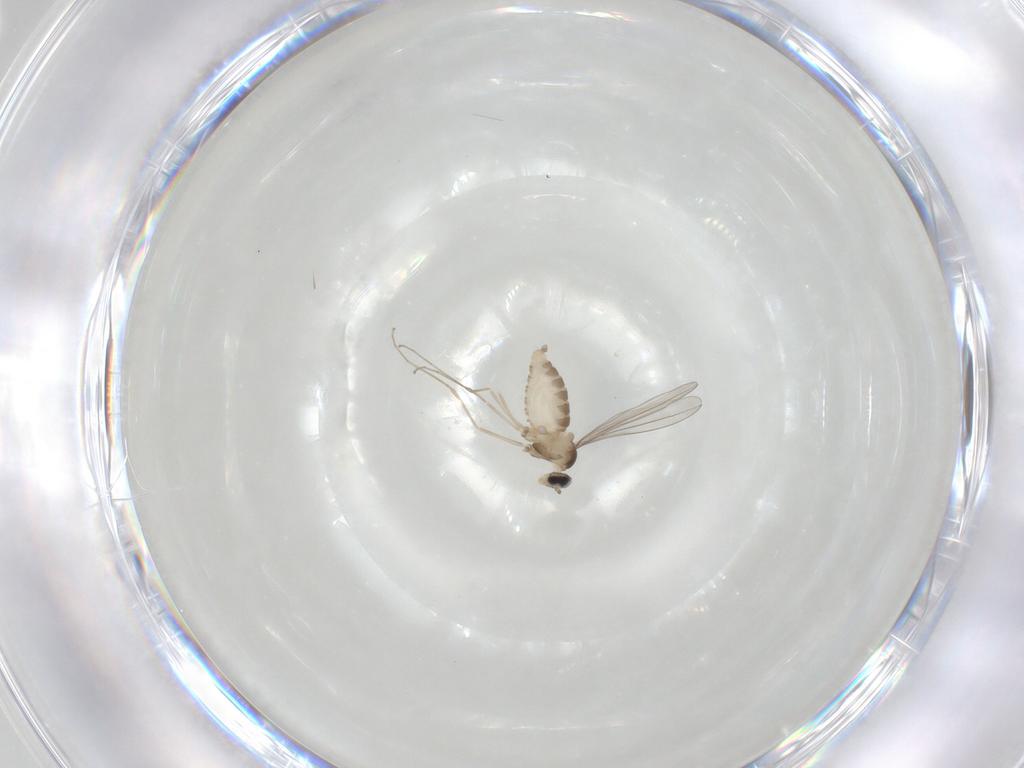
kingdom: Animalia
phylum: Arthropoda
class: Insecta
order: Diptera
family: Cecidomyiidae
